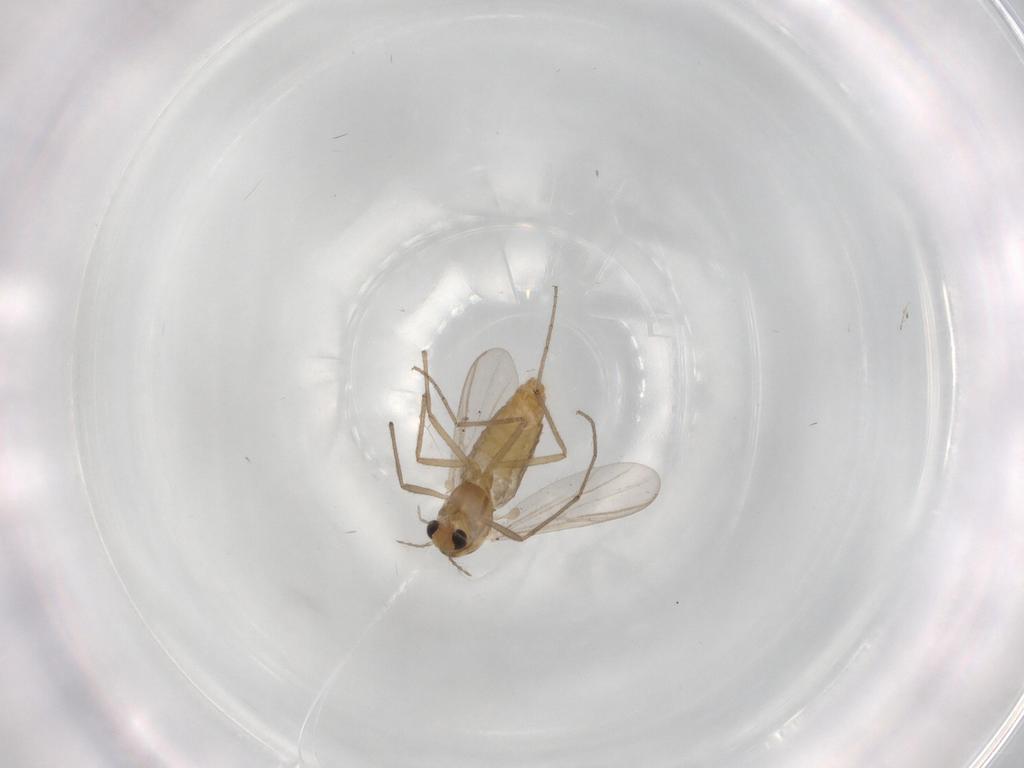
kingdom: Animalia
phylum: Arthropoda
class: Insecta
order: Diptera
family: Chironomidae
